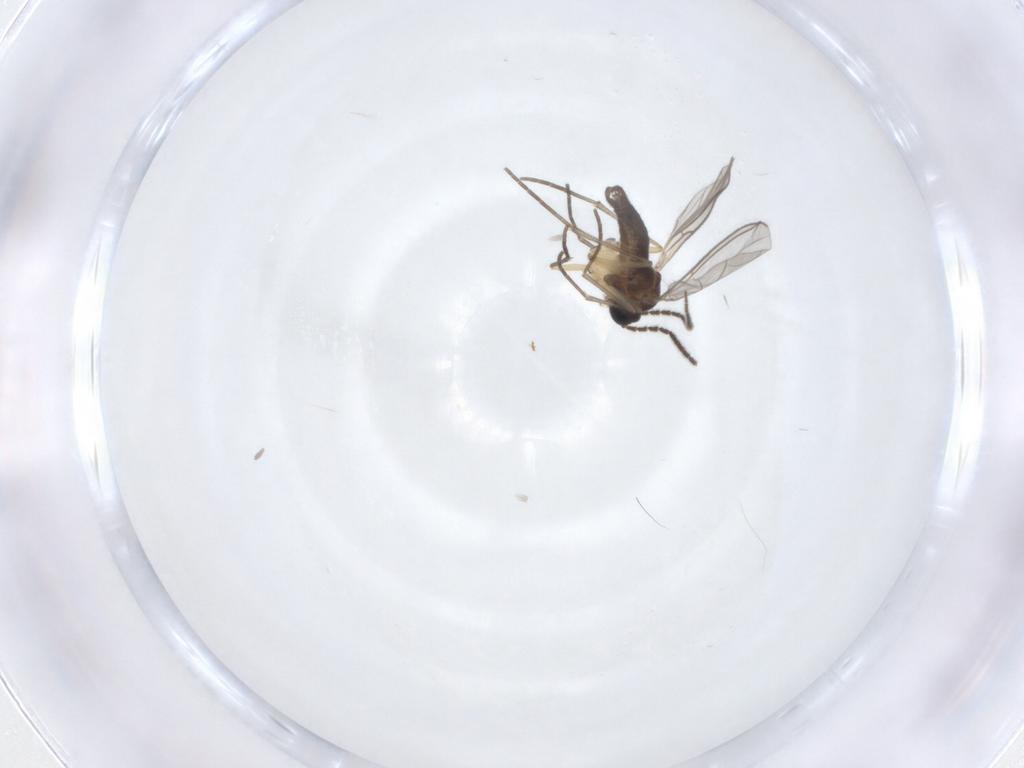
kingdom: Animalia
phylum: Arthropoda
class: Insecta
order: Diptera
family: Sciaridae
